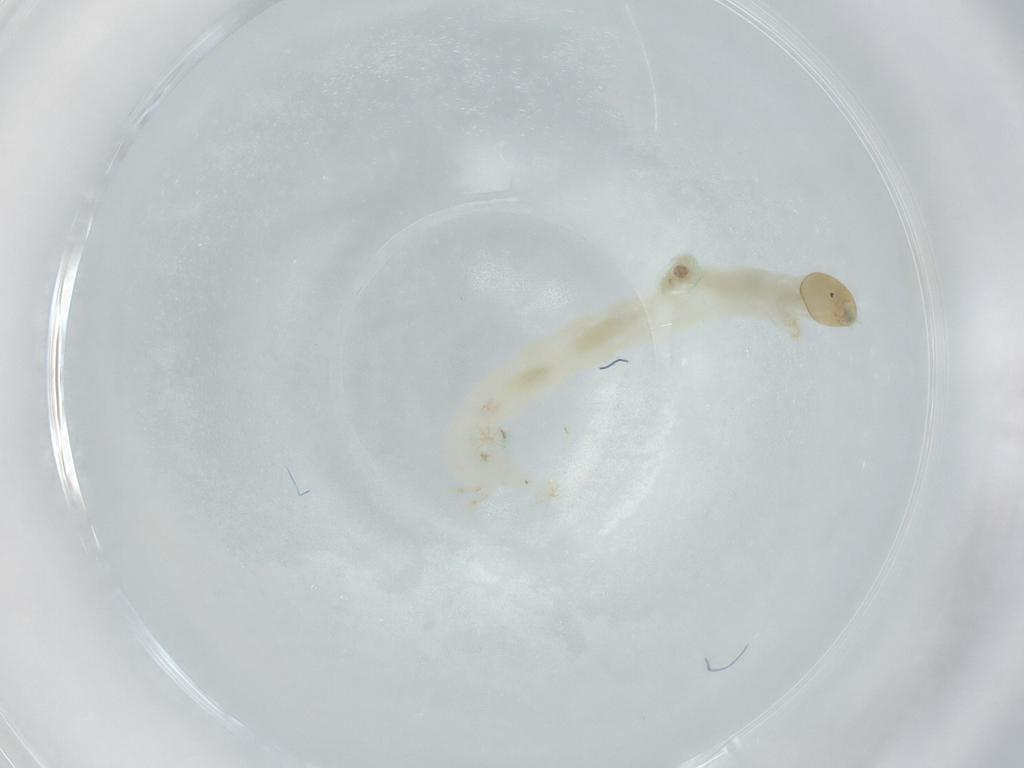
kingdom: Animalia
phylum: Arthropoda
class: Insecta
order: Diptera
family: Chironomidae
